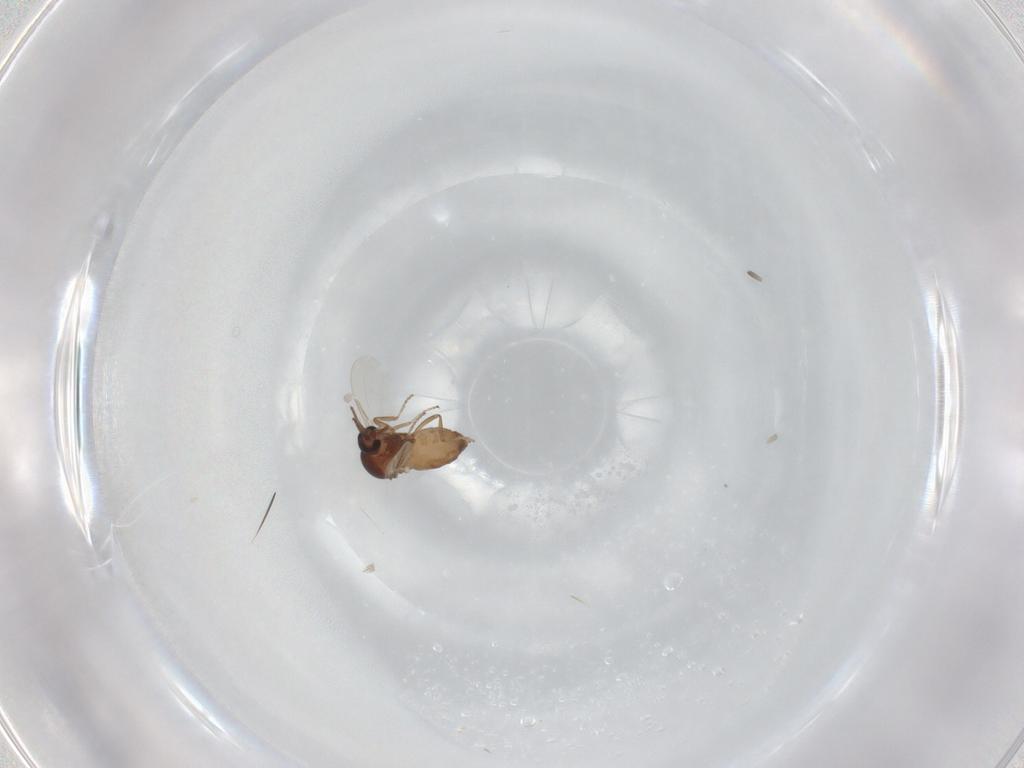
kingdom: Animalia
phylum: Arthropoda
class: Insecta
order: Diptera
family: Ceratopogonidae
